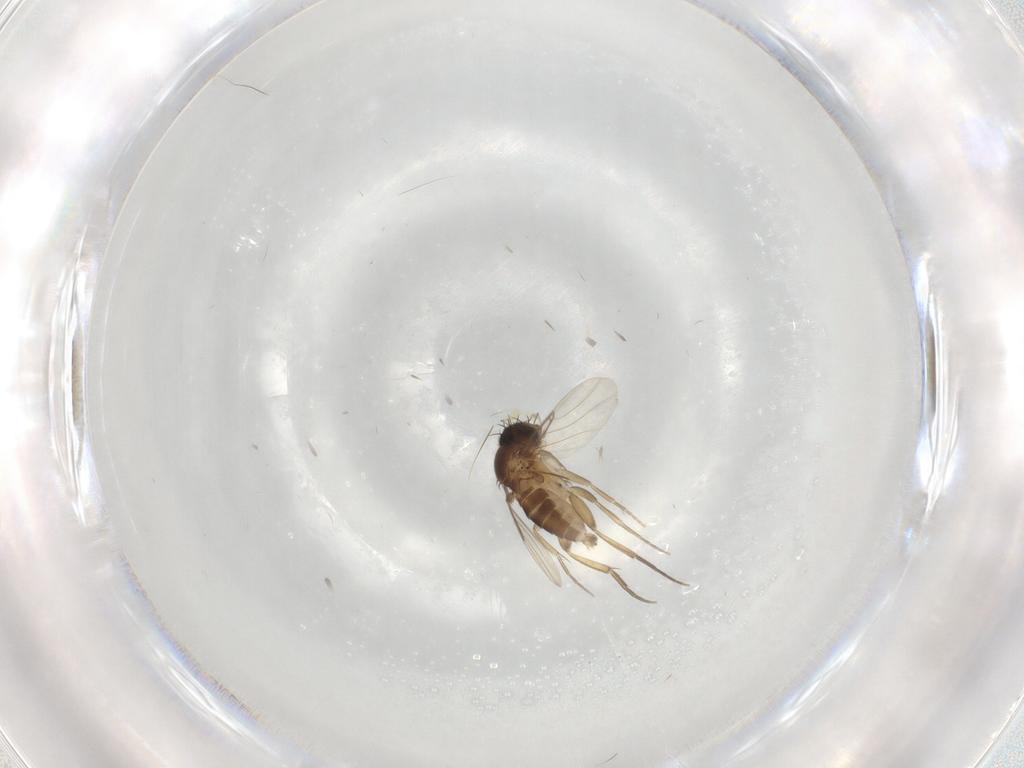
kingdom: Animalia
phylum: Arthropoda
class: Insecta
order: Diptera
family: Phoridae
